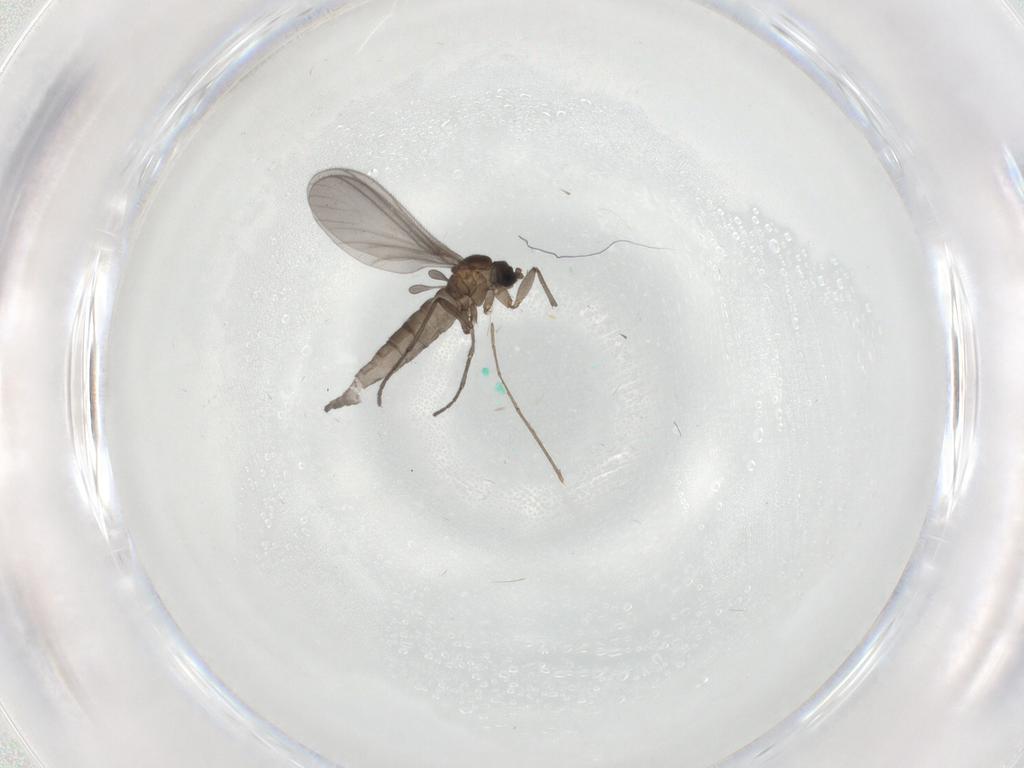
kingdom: Animalia
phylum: Arthropoda
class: Insecta
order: Diptera
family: Sciaridae
